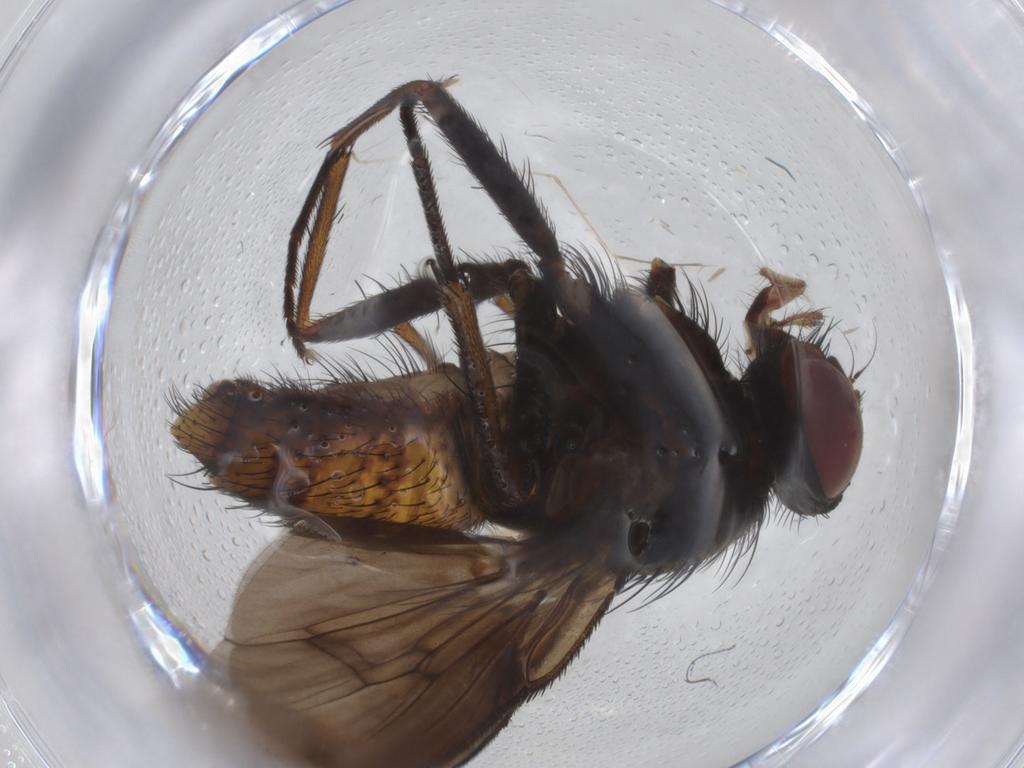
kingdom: Animalia
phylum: Arthropoda
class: Insecta
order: Diptera
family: Muscidae
